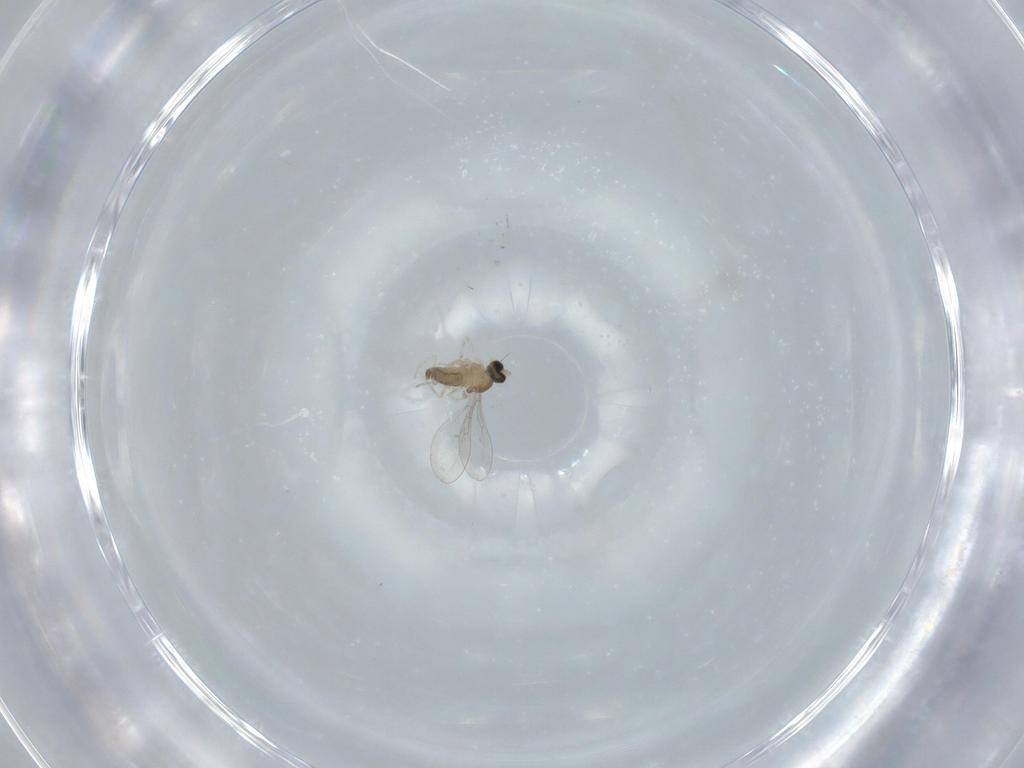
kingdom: Animalia
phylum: Arthropoda
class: Insecta
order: Diptera
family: Cecidomyiidae
